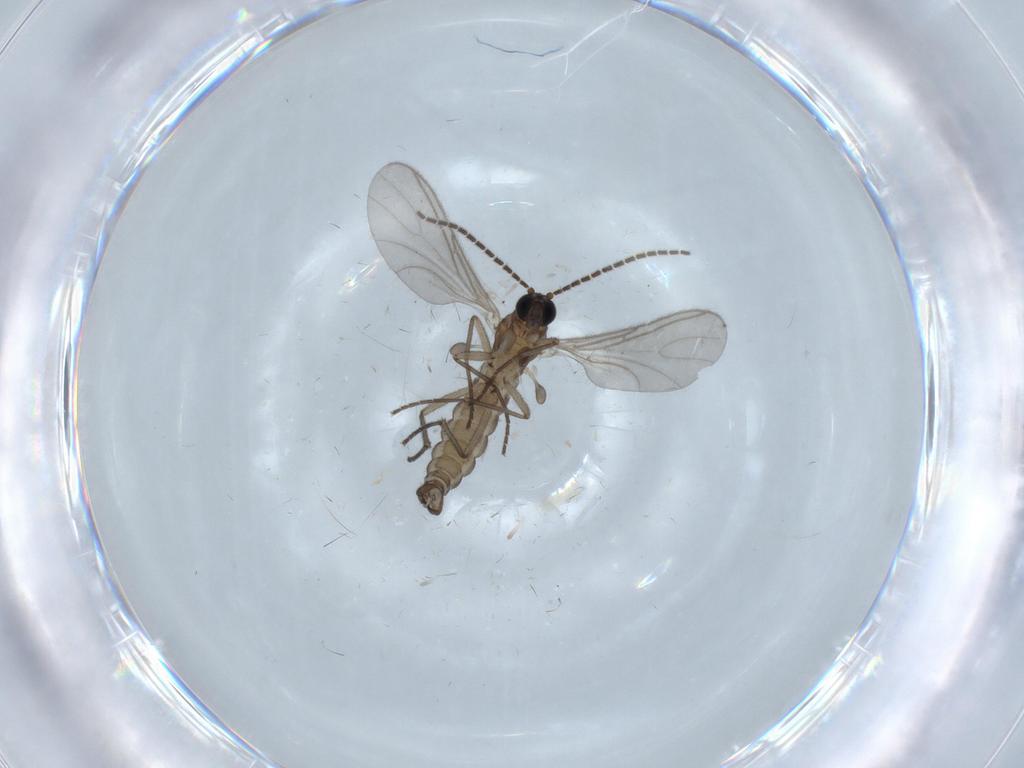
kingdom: Animalia
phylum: Arthropoda
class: Insecta
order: Diptera
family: Sciaridae
